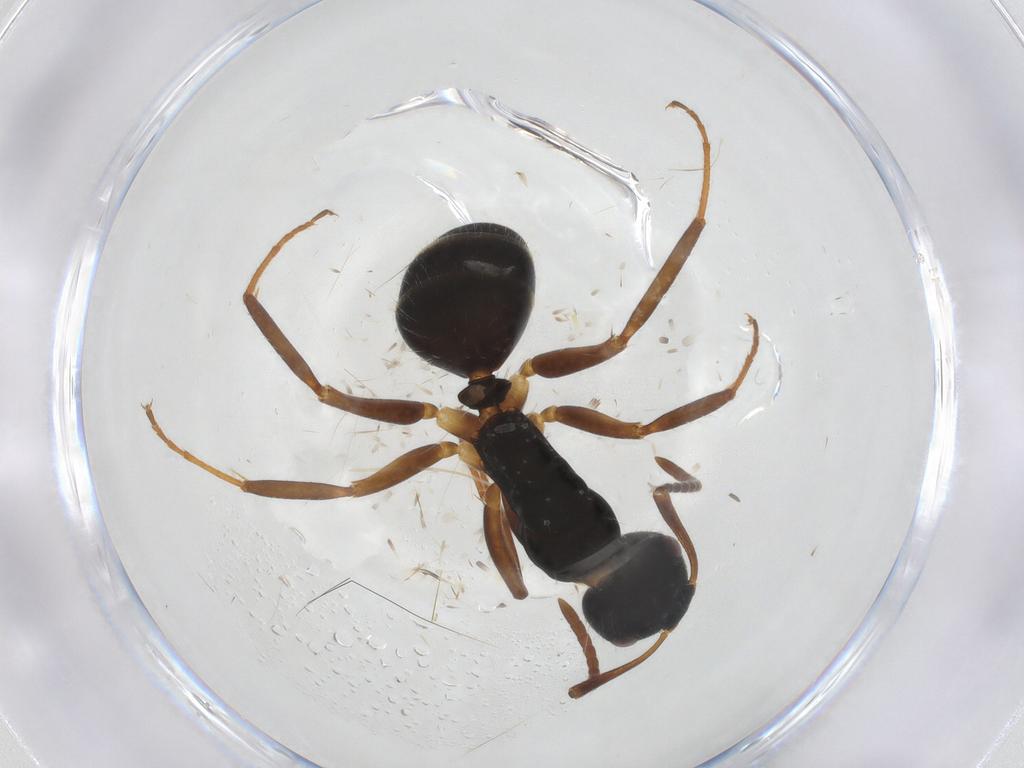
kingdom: Animalia
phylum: Arthropoda
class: Insecta
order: Hymenoptera
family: Formicidae
